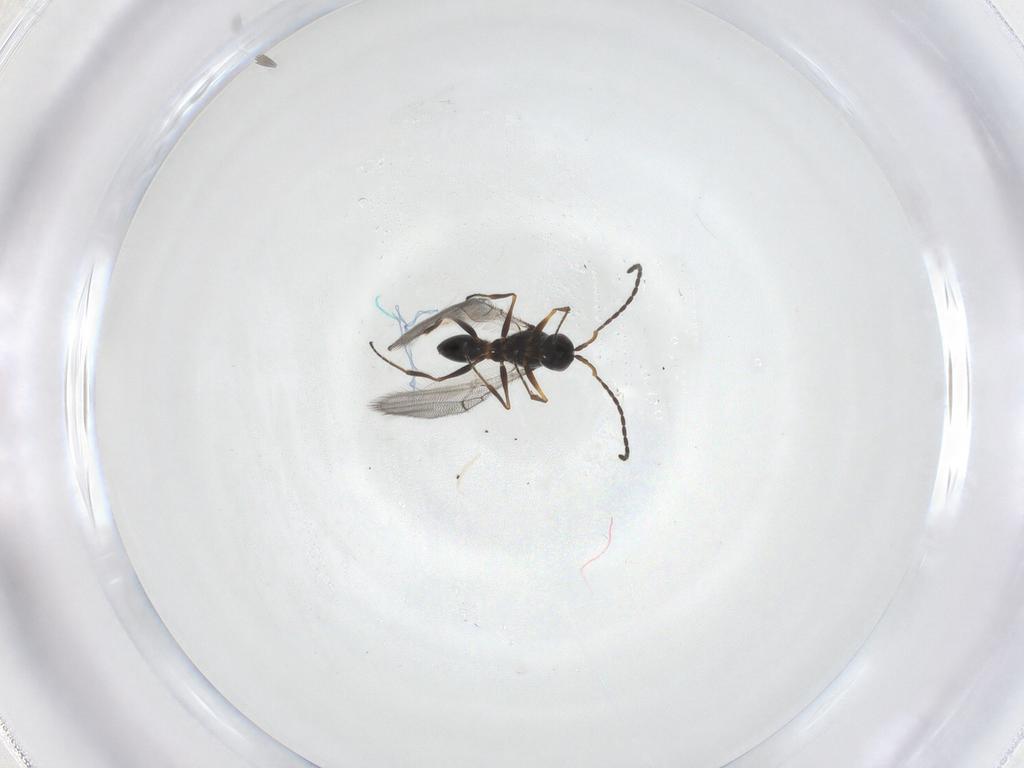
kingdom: Animalia
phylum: Arthropoda
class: Insecta
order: Hymenoptera
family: Figitidae
